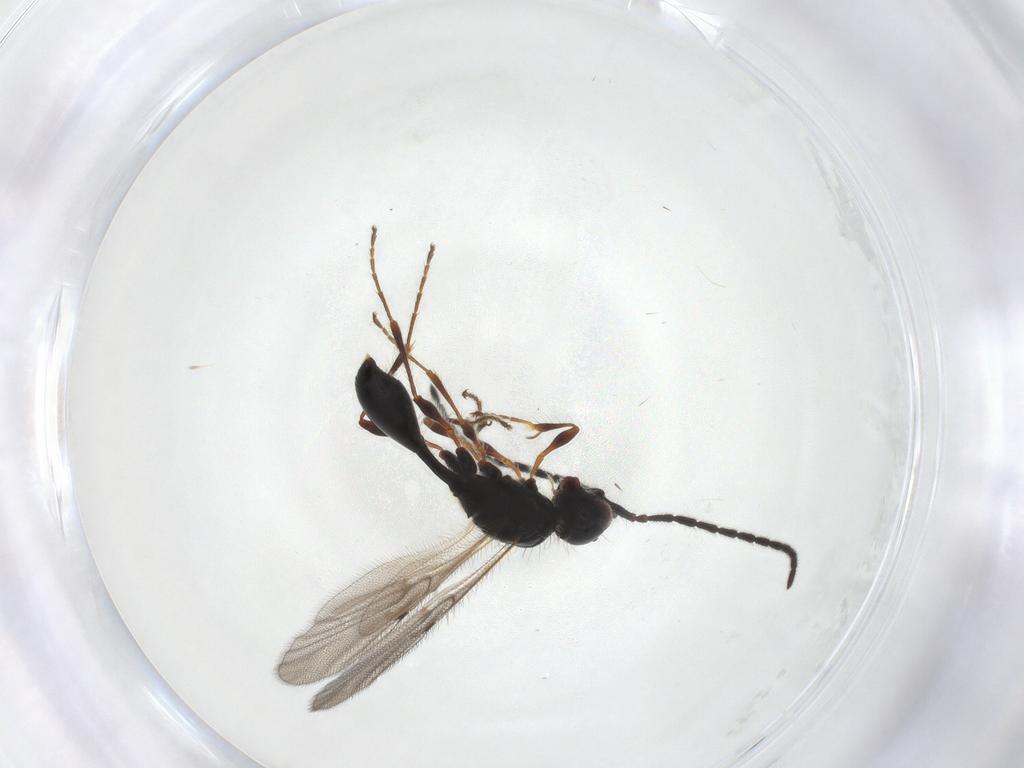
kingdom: Animalia
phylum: Arthropoda
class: Insecta
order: Hymenoptera
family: Diapriidae
